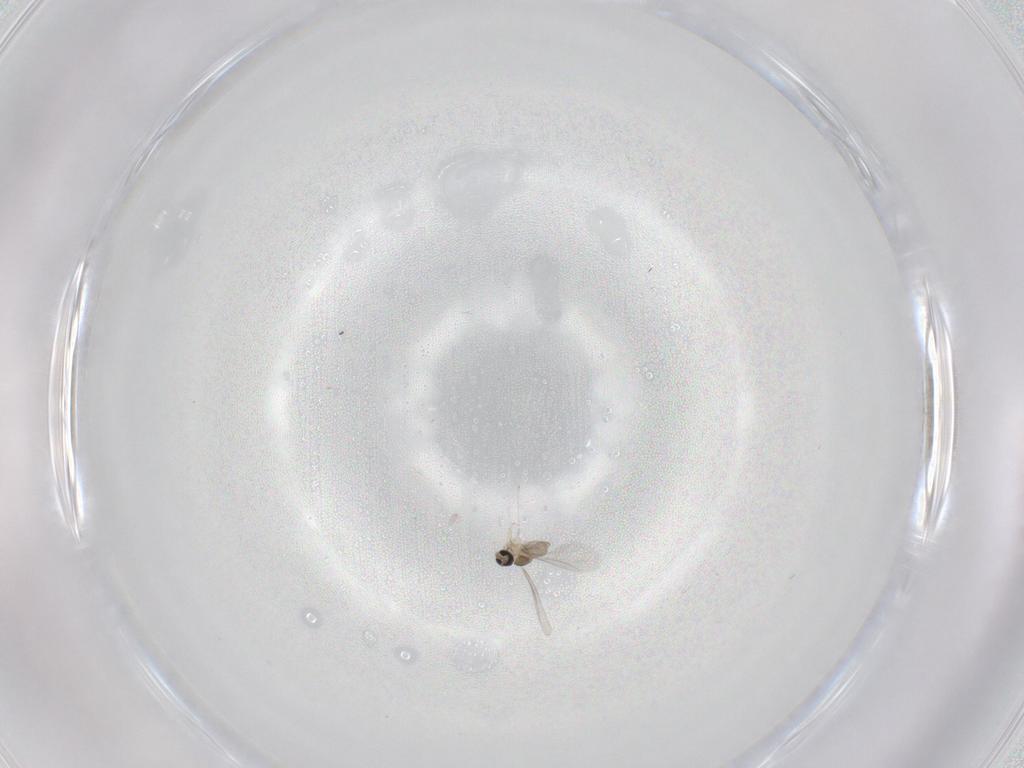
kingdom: Animalia
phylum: Arthropoda
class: Insecta
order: Diptera
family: Cecidomyiidae
